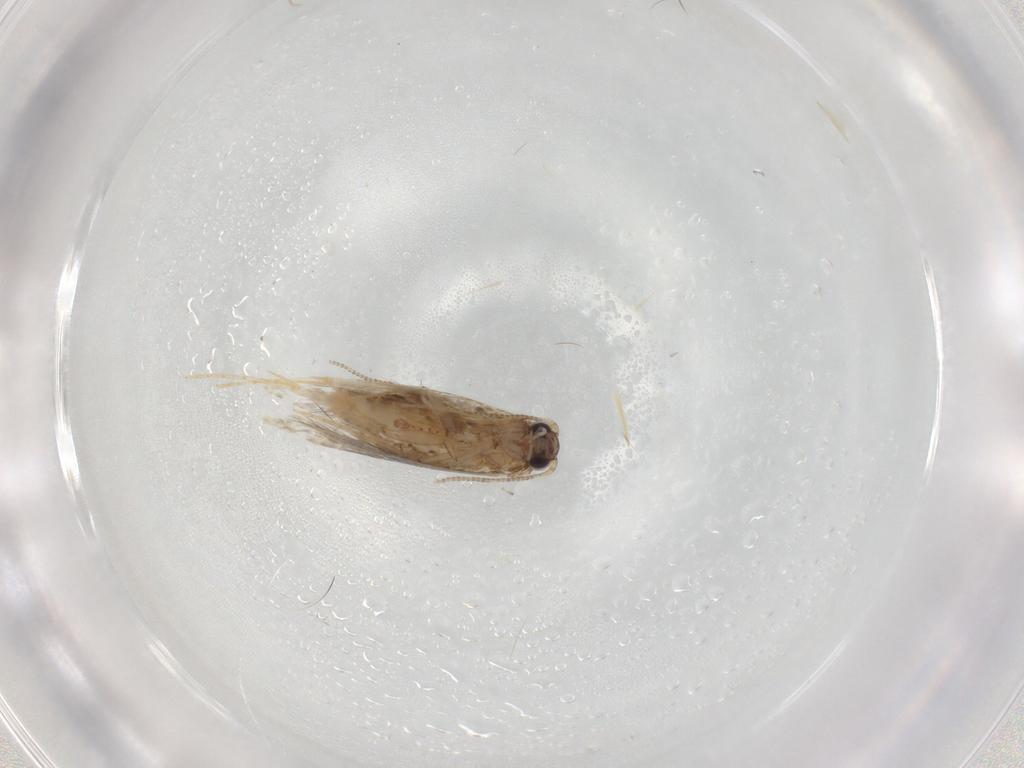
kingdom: Animalia
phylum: Arthropoda
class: Insecta
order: Lepidoptera
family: Tineidae
